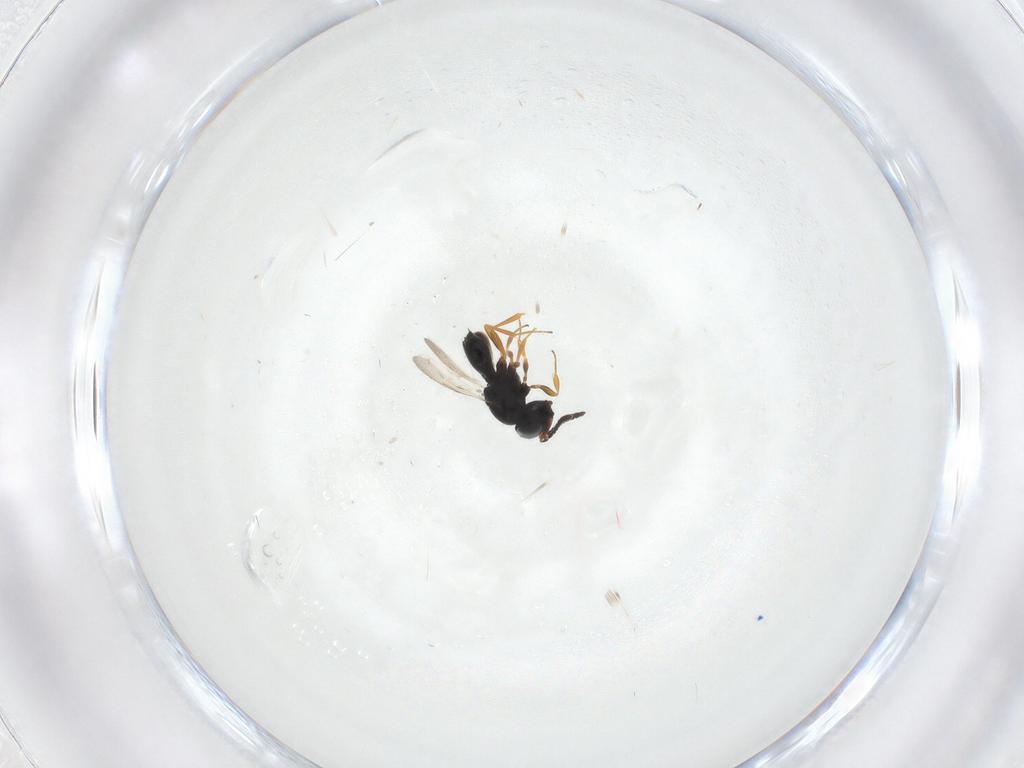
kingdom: Animalia
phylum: Arthropoda
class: Insecta
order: Hymenoptera
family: Scelionidae
